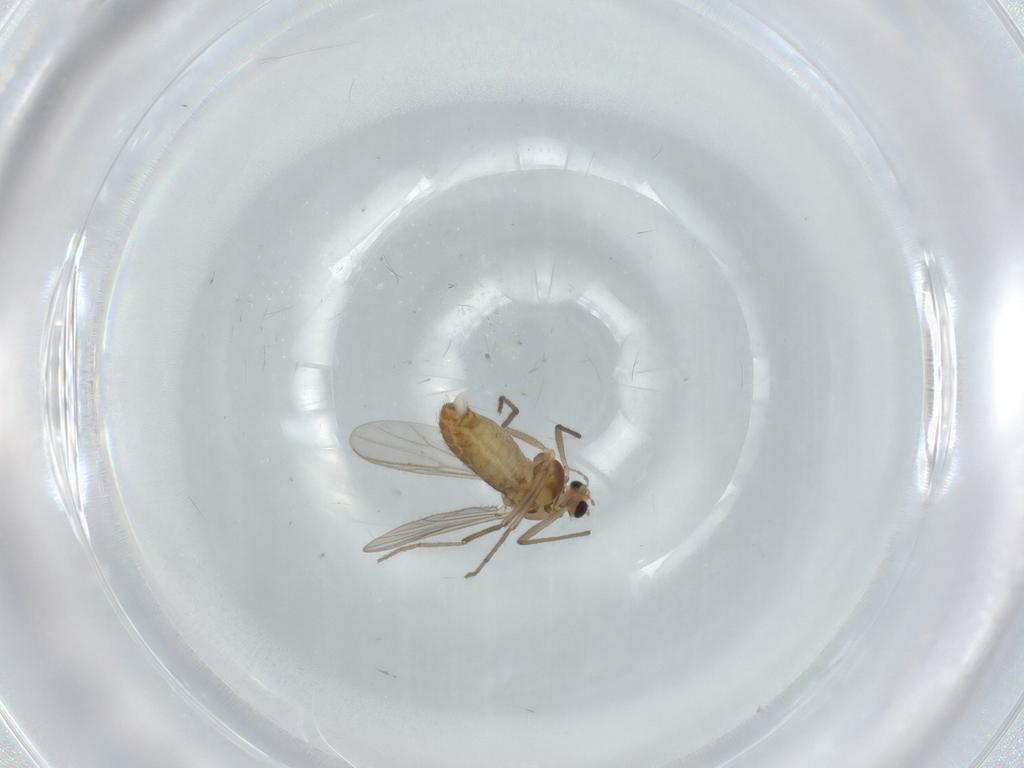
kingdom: Animalia
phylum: Arthropoda
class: Insecta
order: Diptera
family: Chironomidae
